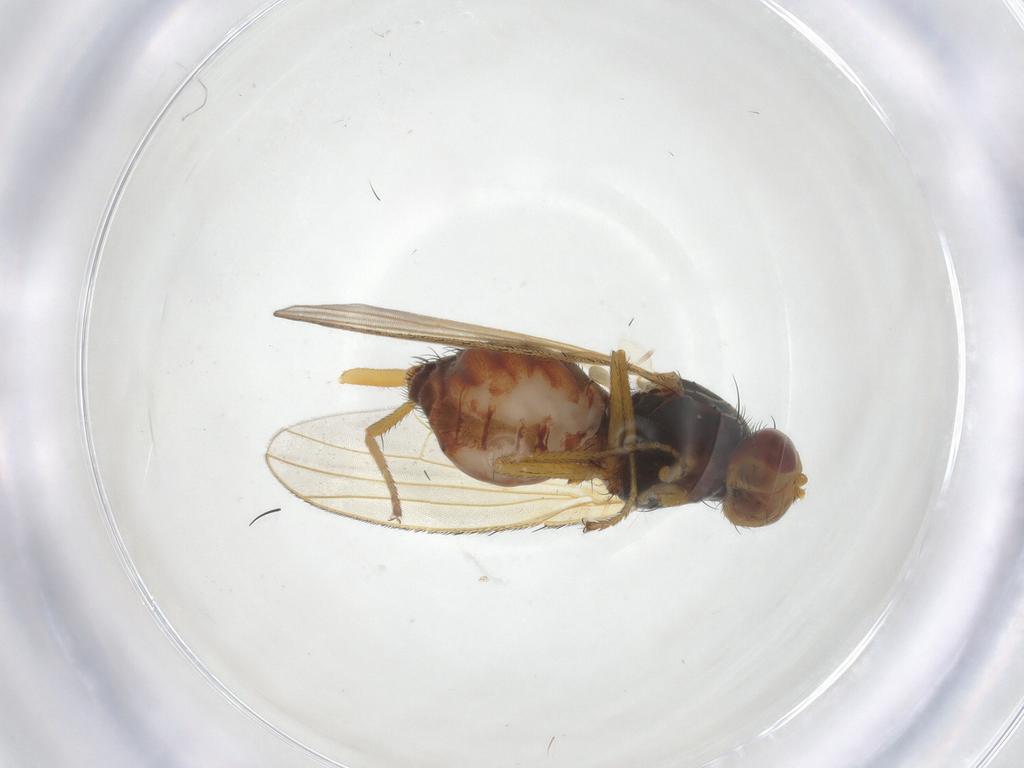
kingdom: Animalia
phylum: Arthropoda
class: Insecta
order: Diptera
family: Heleomyzidae
